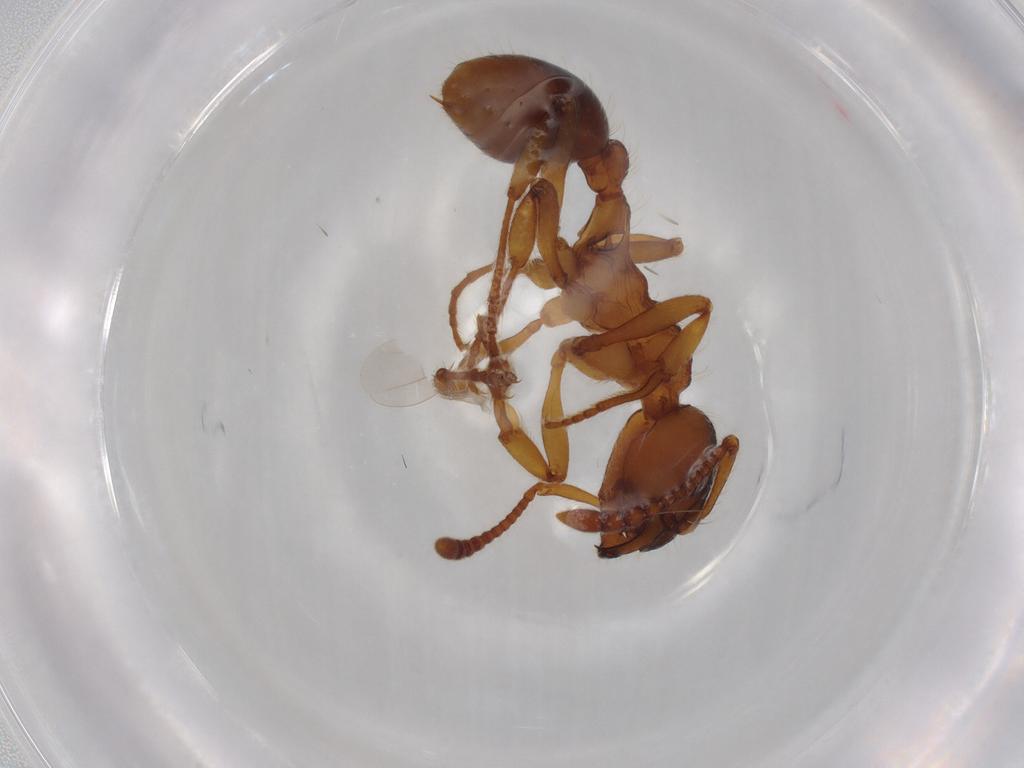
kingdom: Animalia
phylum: Arthropoda
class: Insecta
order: Hymenoptera
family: Formicidae
